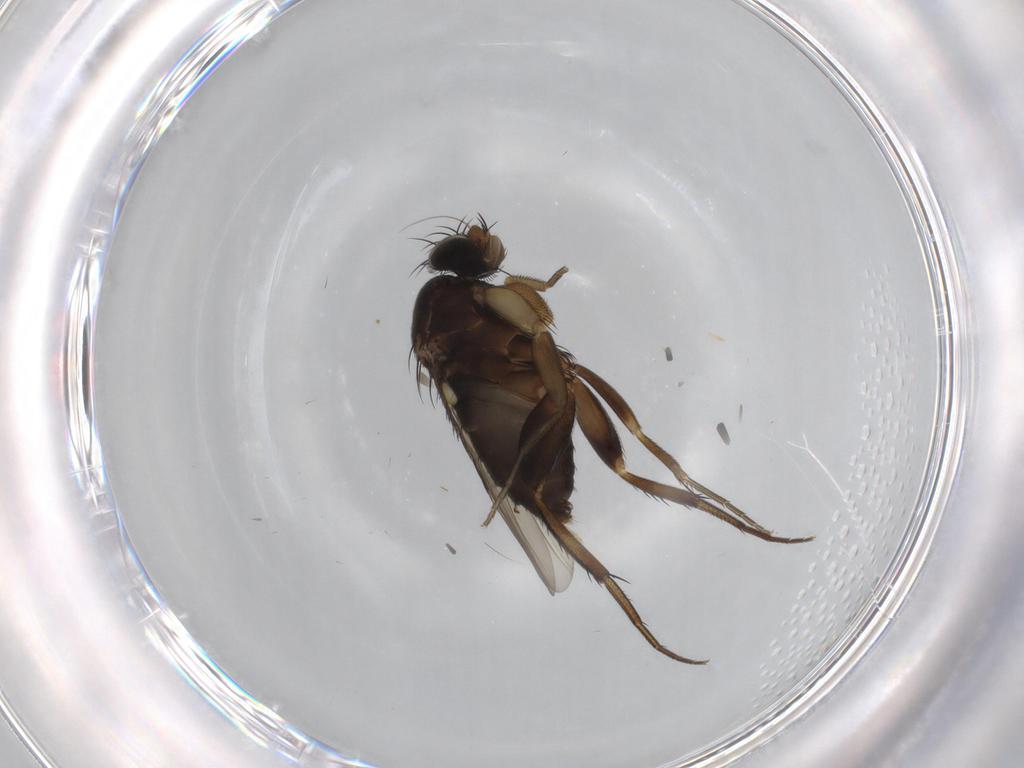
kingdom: Animalia
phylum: Arthropoda
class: Insecta
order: Diptera
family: Phoridae
